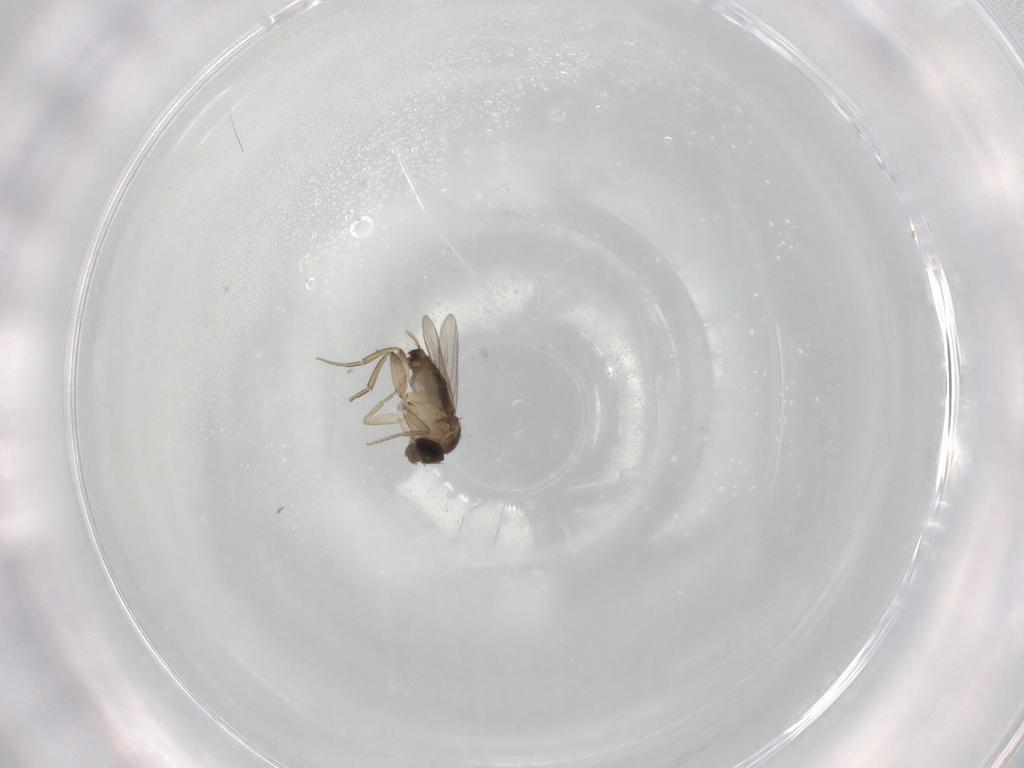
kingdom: Animalia
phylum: Arthropoda
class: Insecta
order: Diptera
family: Phoridae
